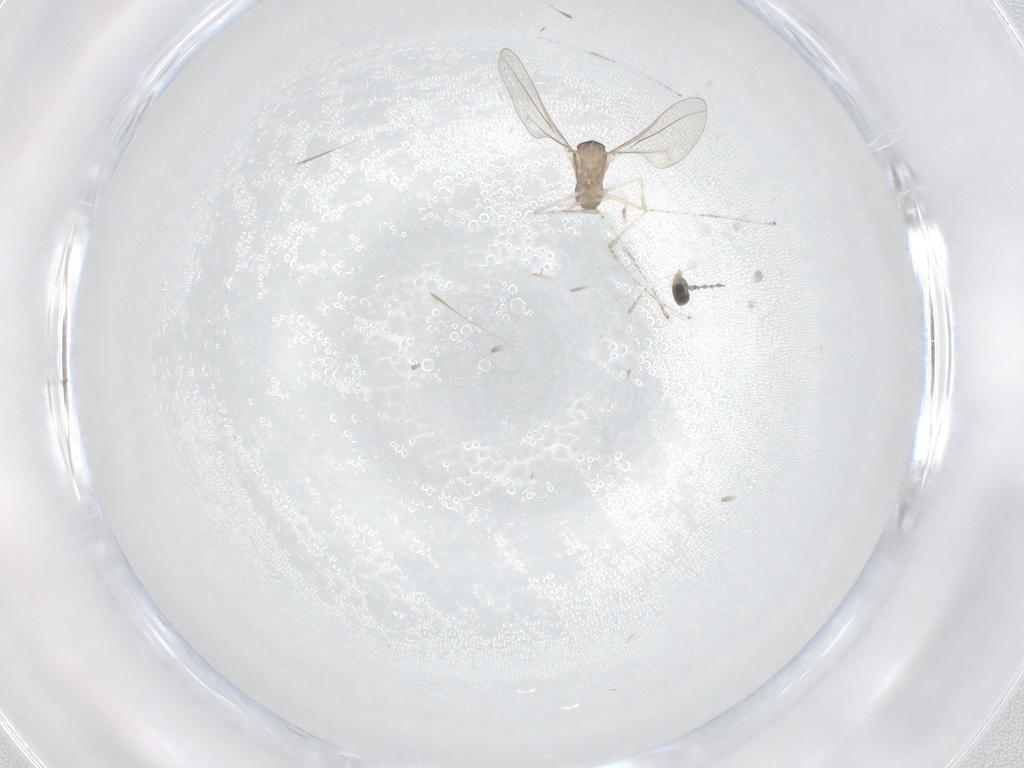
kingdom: Animalia
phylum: Arthropoda
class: Insecta
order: Diptera
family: Cecidomyiidae
